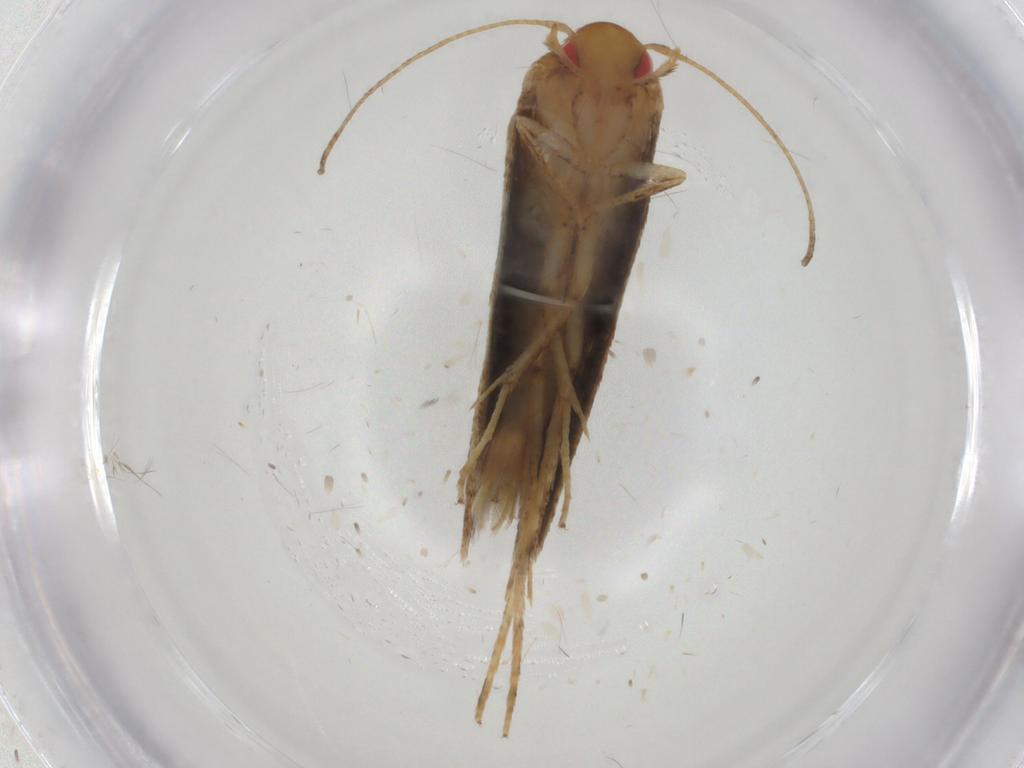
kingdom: Animalia
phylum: Arthropoda
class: Insecta
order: Lepidoptera
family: Erebidae
